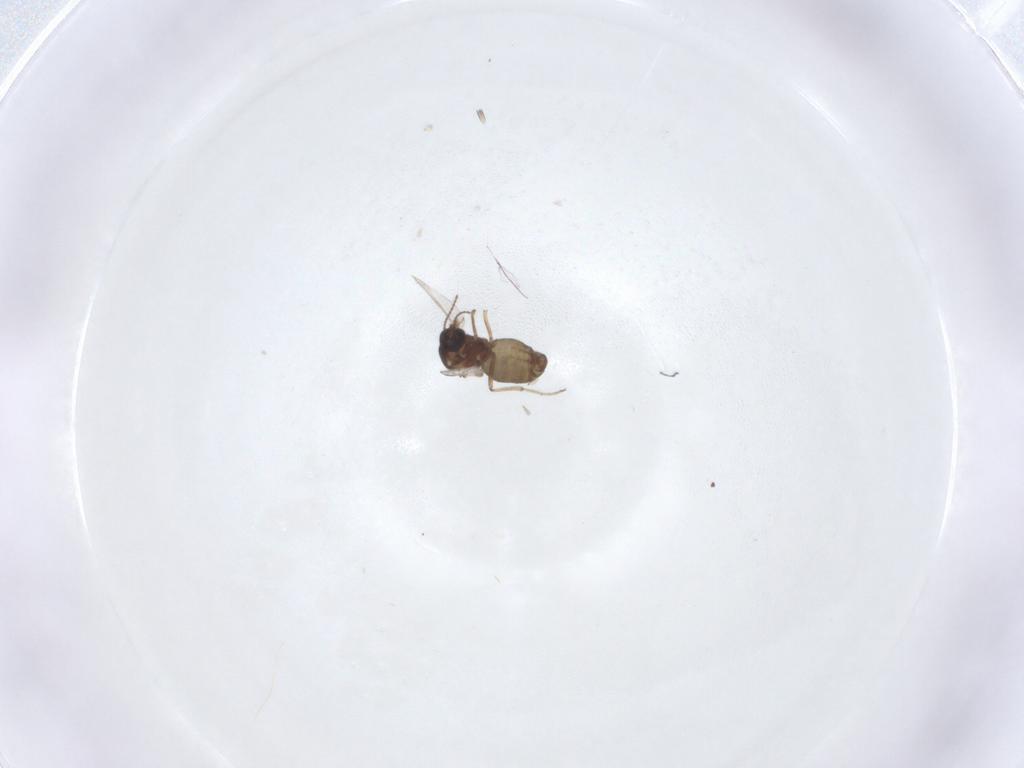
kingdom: Animalia
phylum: Arthropoda
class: Insecta
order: Diptera
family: Ceratopogonidae
